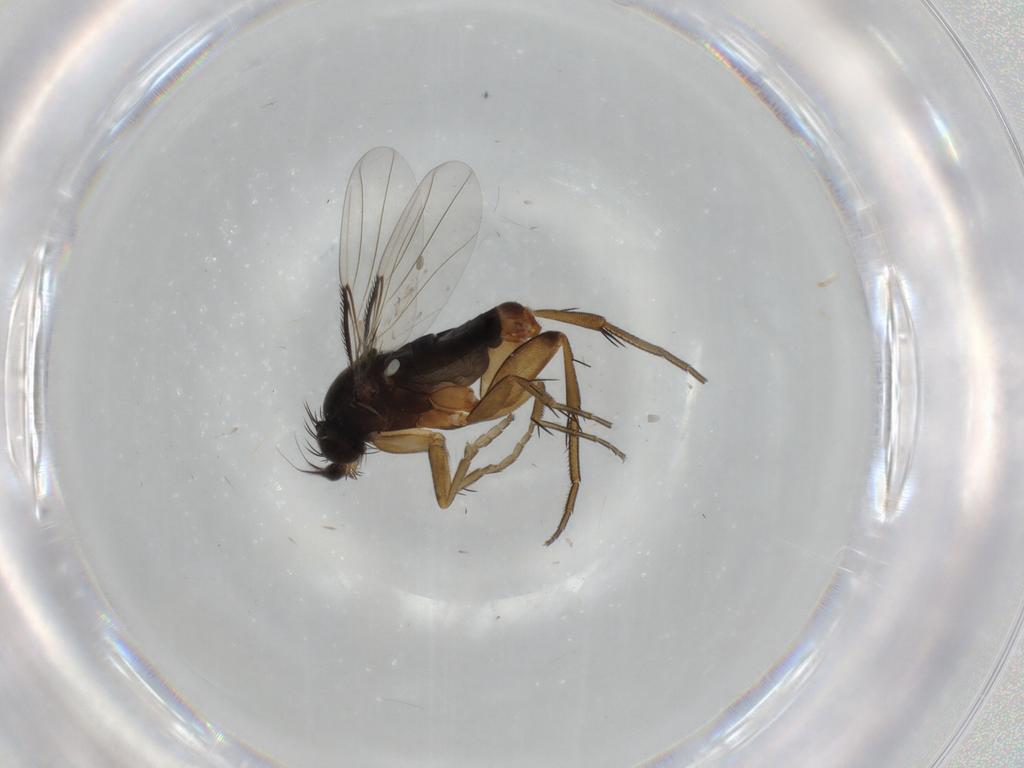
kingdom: Animalia
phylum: Arthropoda
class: Insecta
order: Diptera
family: Phoridae
